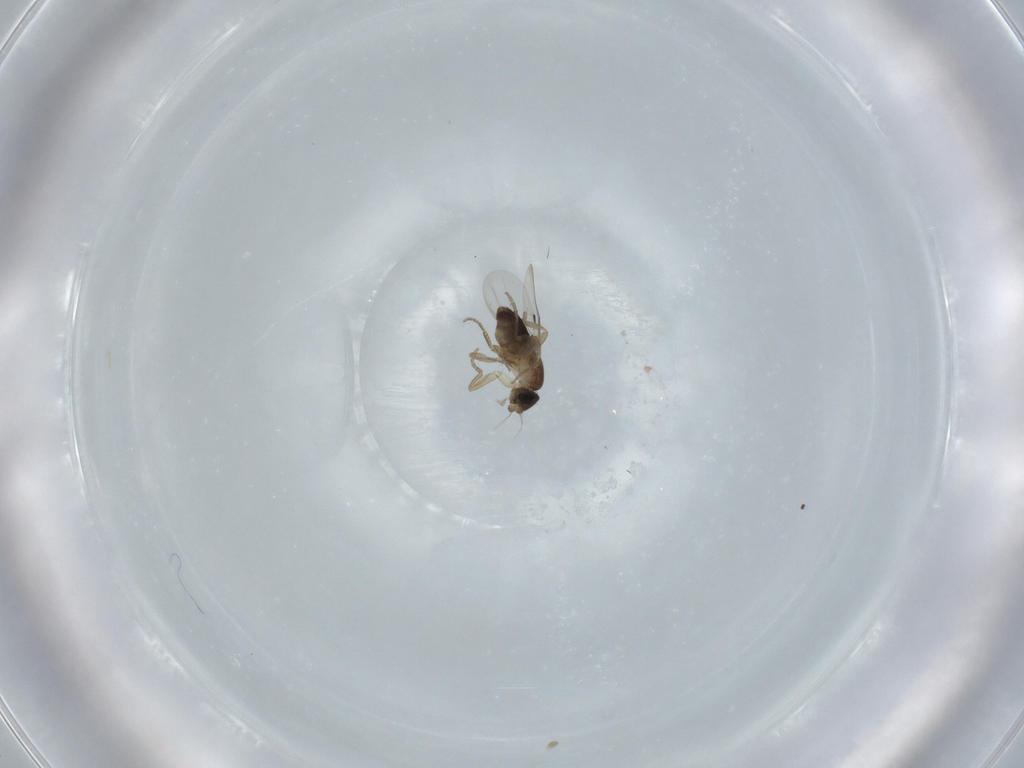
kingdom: Animalia
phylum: Arthropoda
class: Insecta
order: Diptera
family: Phoridae
